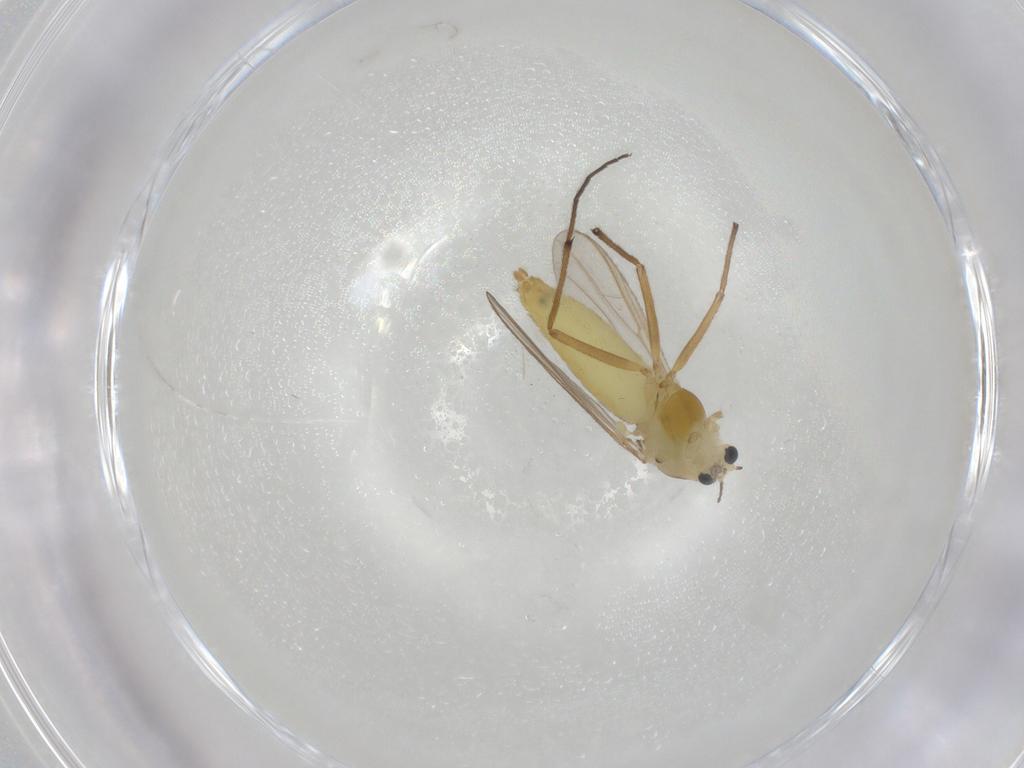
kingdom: Animalia
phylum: Arthropoda
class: Insecta
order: Diptera
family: Chironomidae
